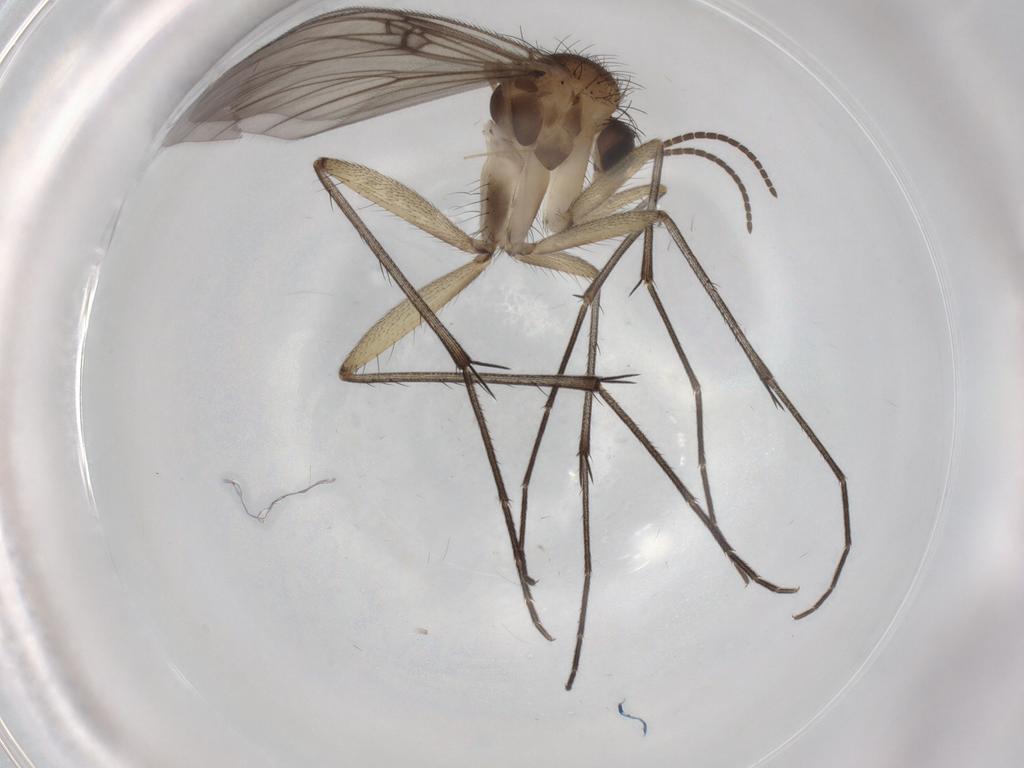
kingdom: Animalia
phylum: Arthropoda
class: Insecta
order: Diptera
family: Mycetophilidae
